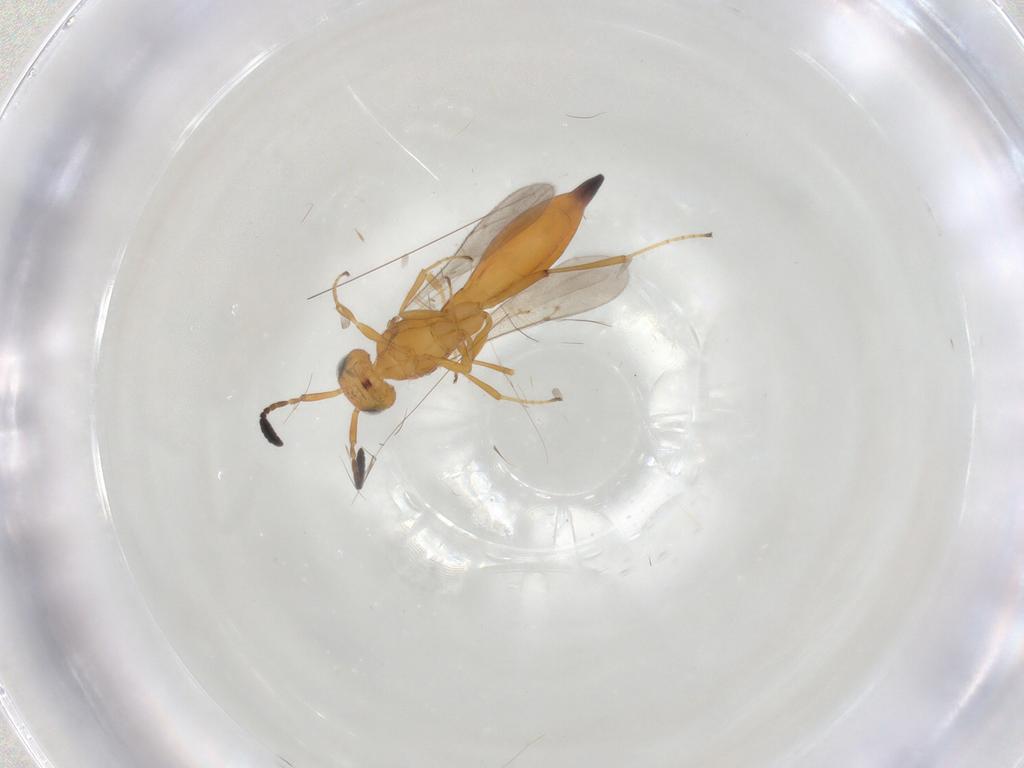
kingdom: Animalia
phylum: Arthropoda
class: Insecta
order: Hymenoptera
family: Scelionidae
